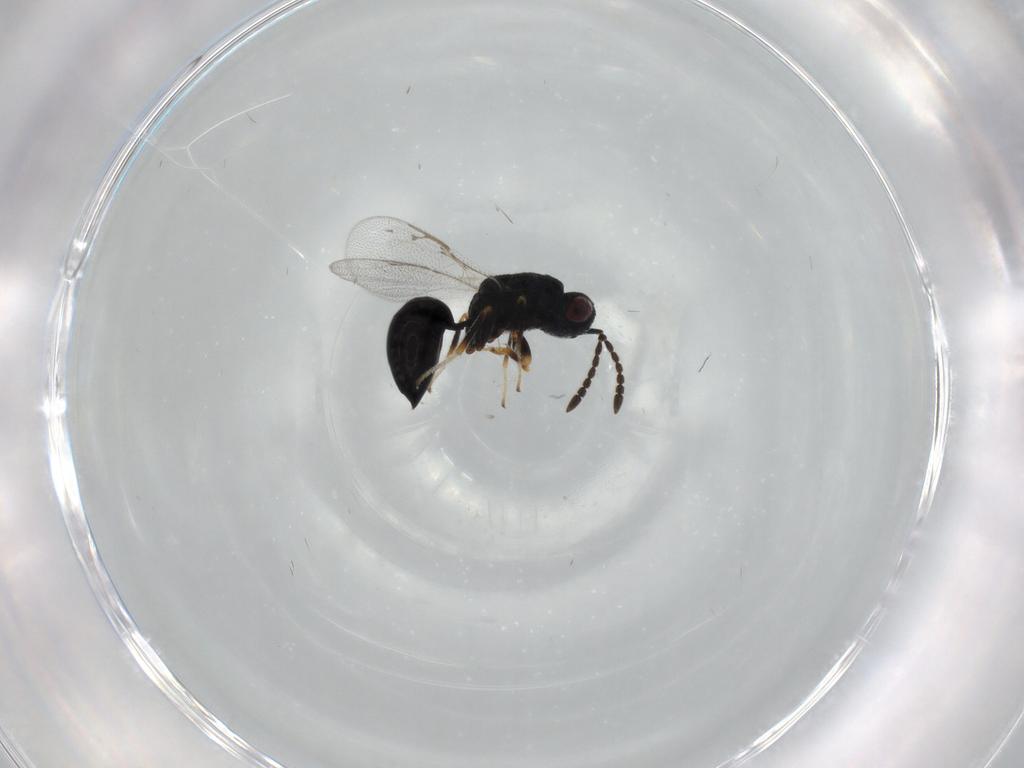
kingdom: Animalia
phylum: Arthropoda
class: Insecta
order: Hymenoptera
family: Eurytomidae
